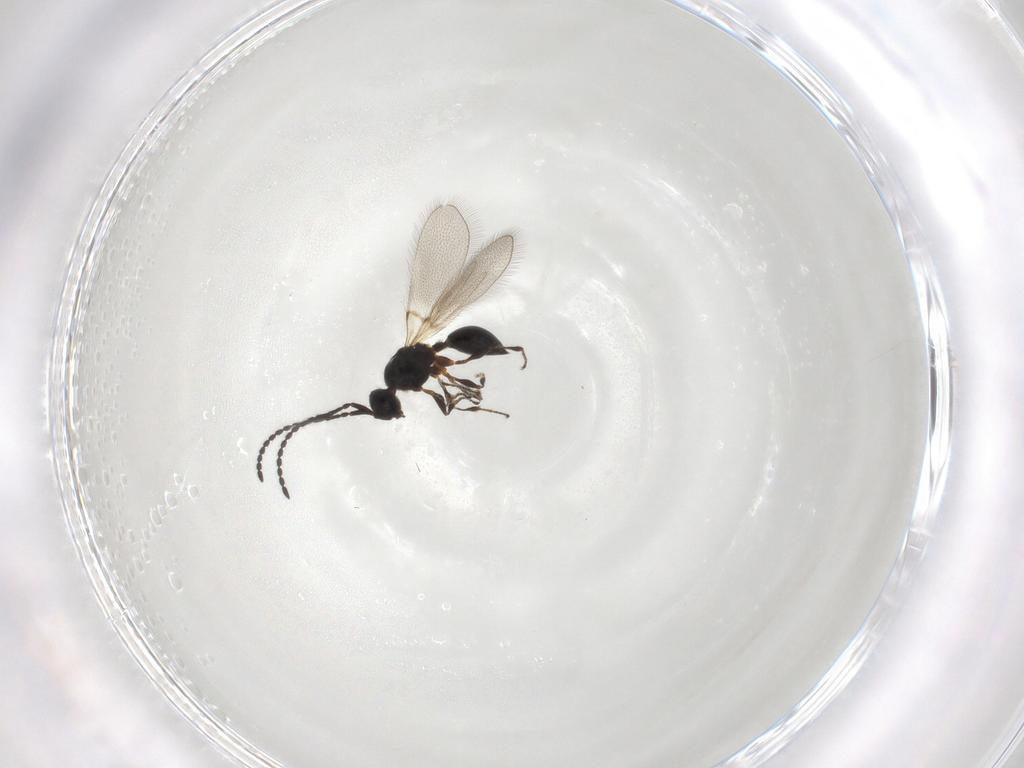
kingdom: Animalia
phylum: Arthropoda
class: Insecta
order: Hymenoptera
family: Diapriidae
